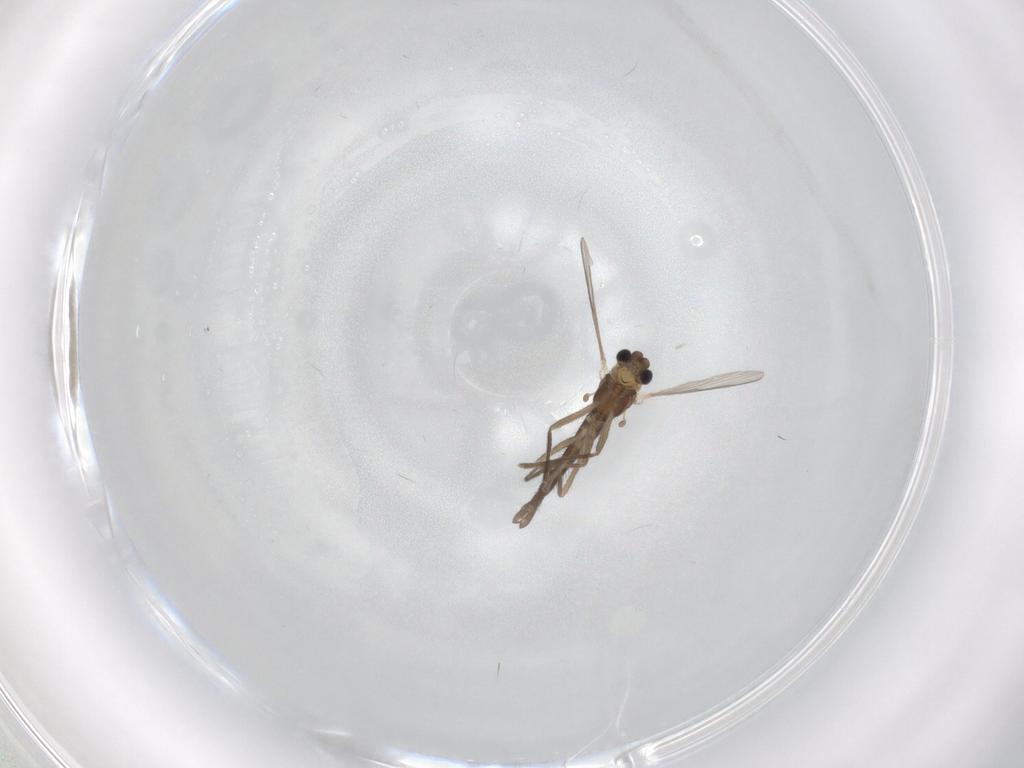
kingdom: Animalia
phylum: Arthropoda
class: Insecta
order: Diptera
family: Chironomidae
